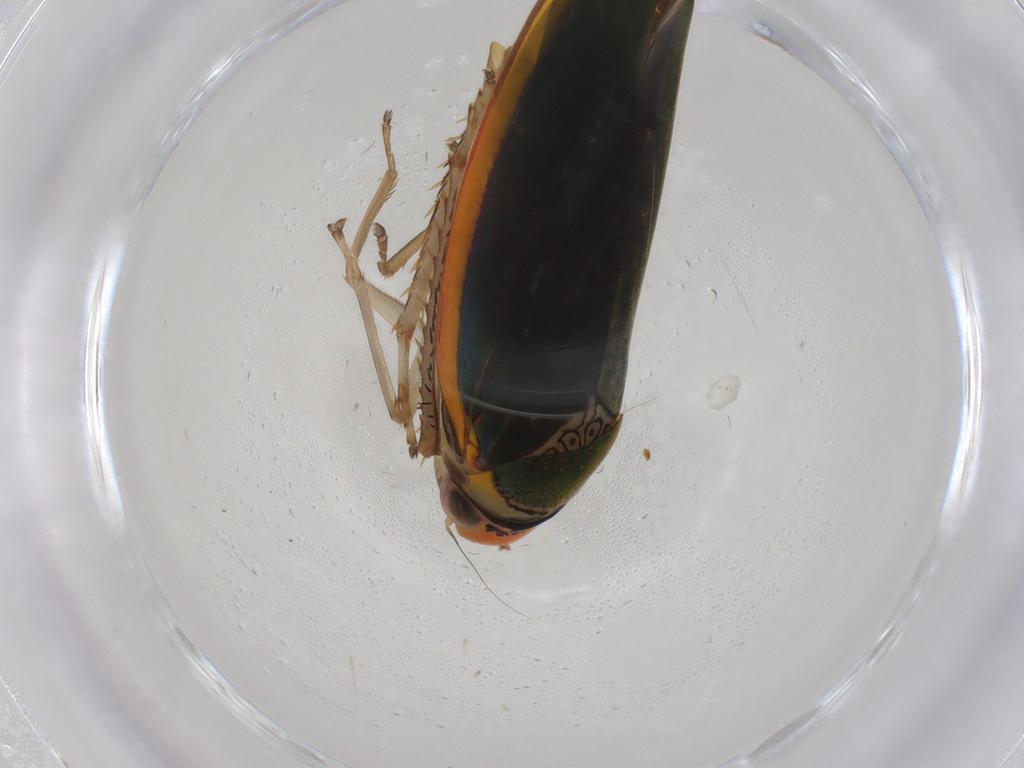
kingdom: Animalia
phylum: Arthropoda
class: Insecta
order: Hemiptera
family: Cicadellidae
